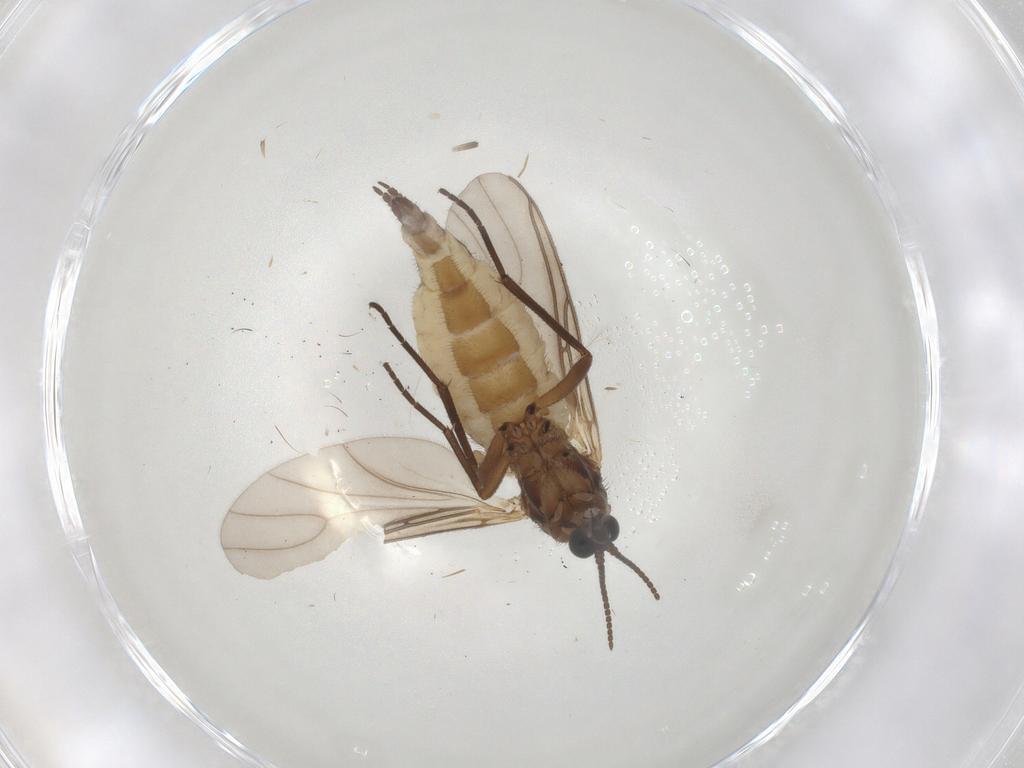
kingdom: Animalia
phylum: Arthropoda
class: Insecta
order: Diptera
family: Sciaridae
